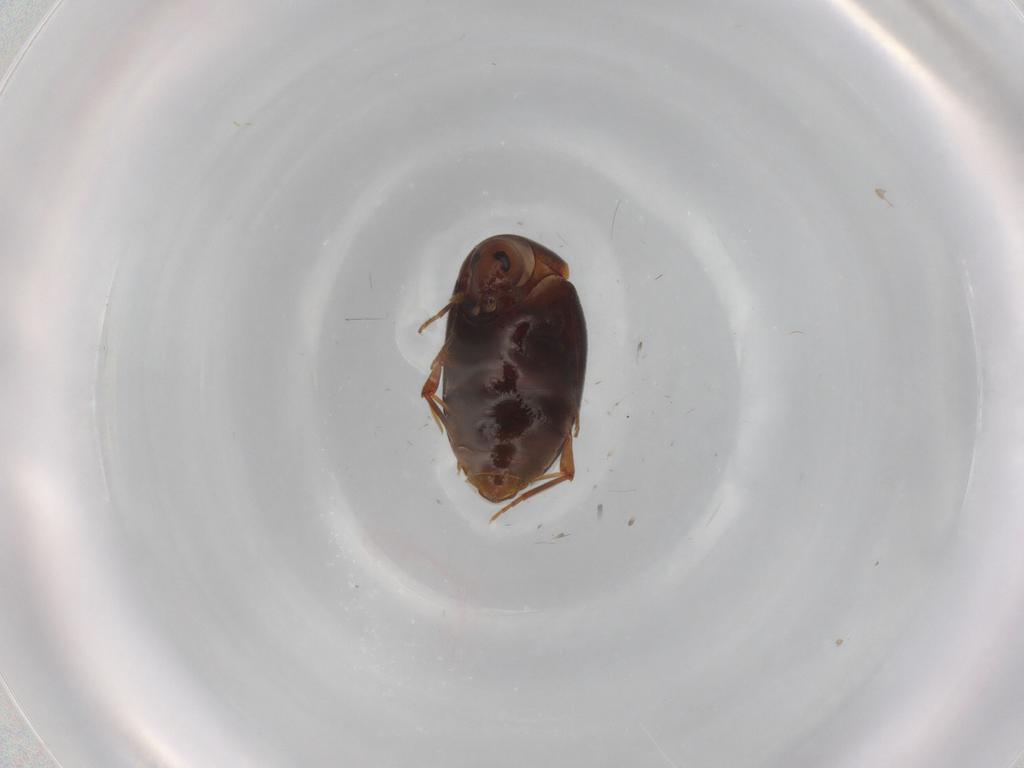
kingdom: Animalia
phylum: Arthropoda
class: Insecta
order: Coleoptera
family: Melandryidae
